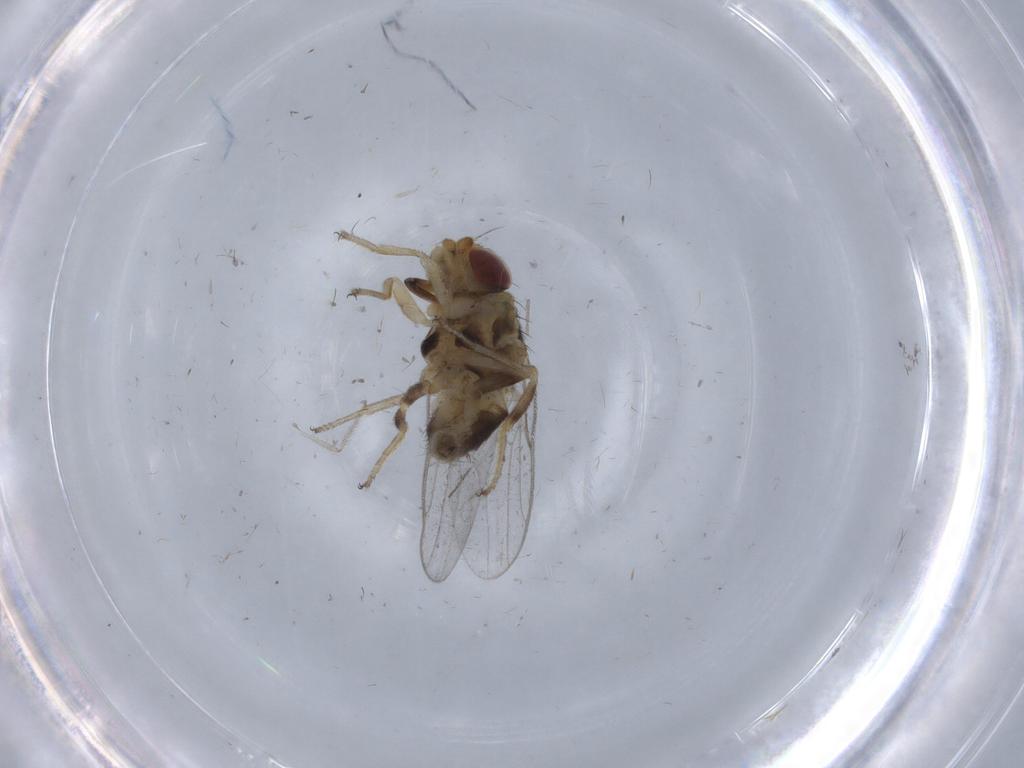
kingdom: Animalia
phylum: Arthropoda
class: Insecta
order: Diptera
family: Chloropidae
